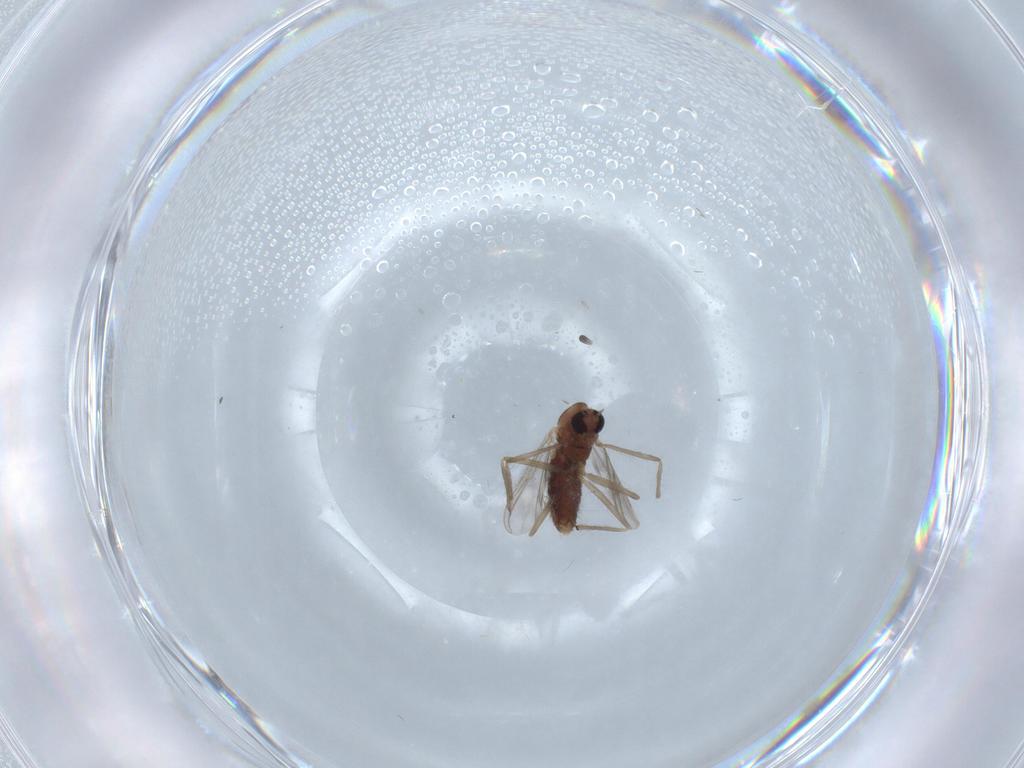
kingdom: Animalia
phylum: Arthropoda
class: Insecta
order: Diptera
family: Chironomidae
